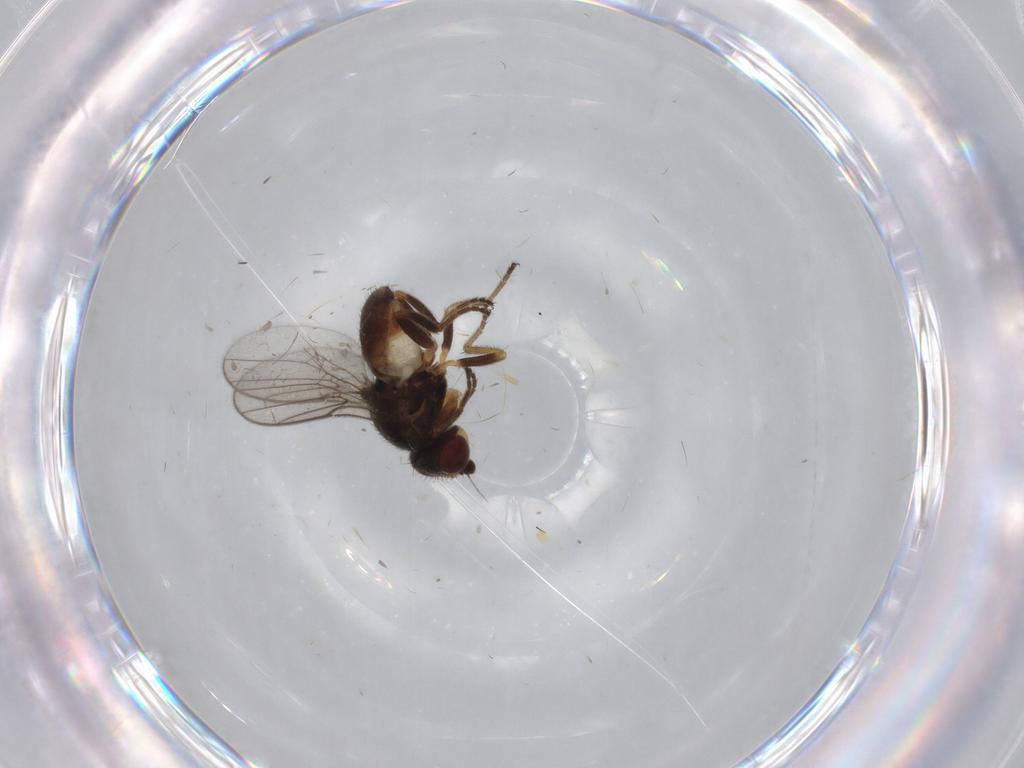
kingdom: Animalia
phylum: Arthropoda
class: Insecta
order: Diptera
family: Chloropidae
